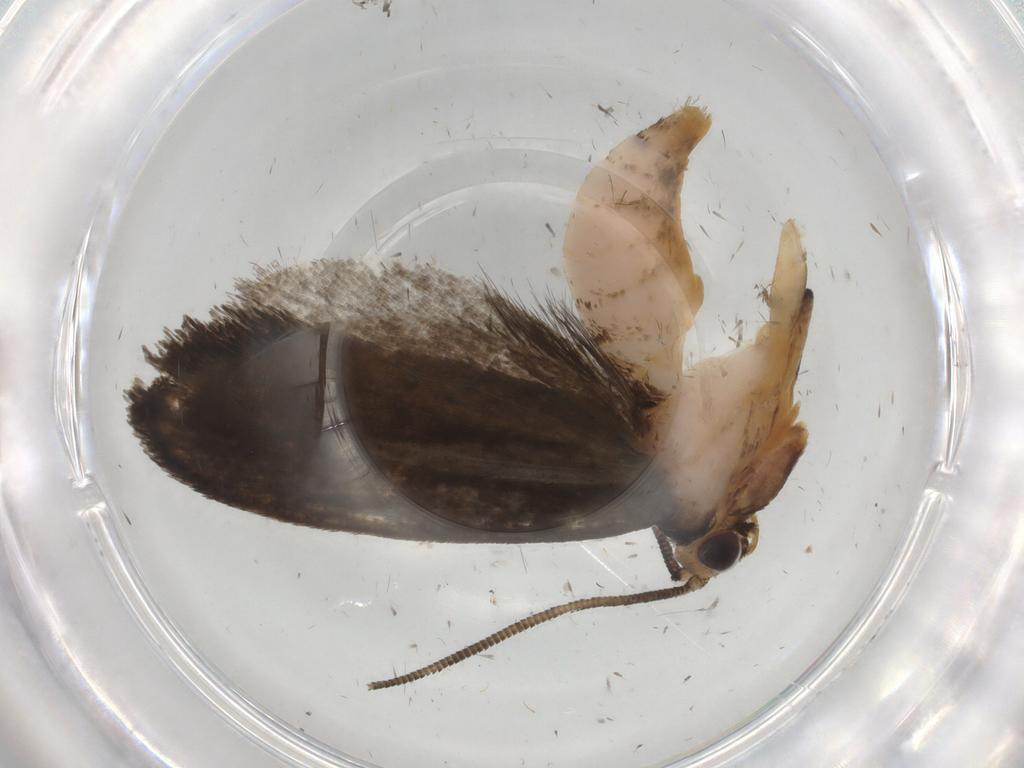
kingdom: Animalia
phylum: Arthropoda
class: Insecta
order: Lepidoptera
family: Tineidae
